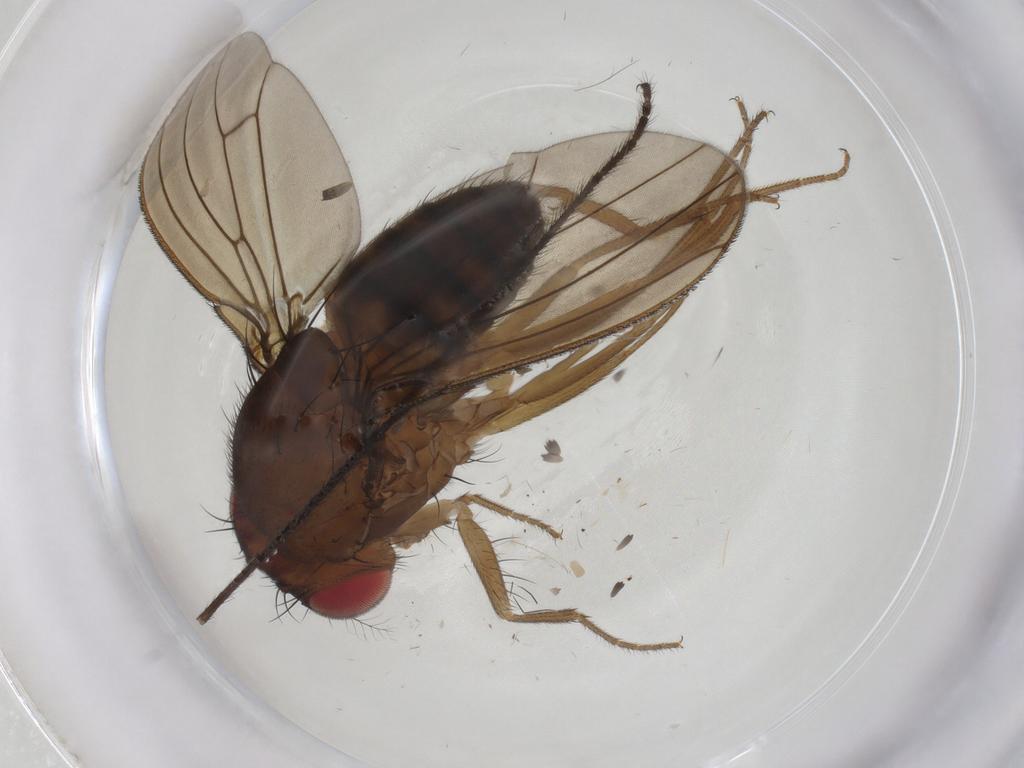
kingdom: Animalia
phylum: Arthropoda
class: Insecta
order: Diptera
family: Drosophilidae
